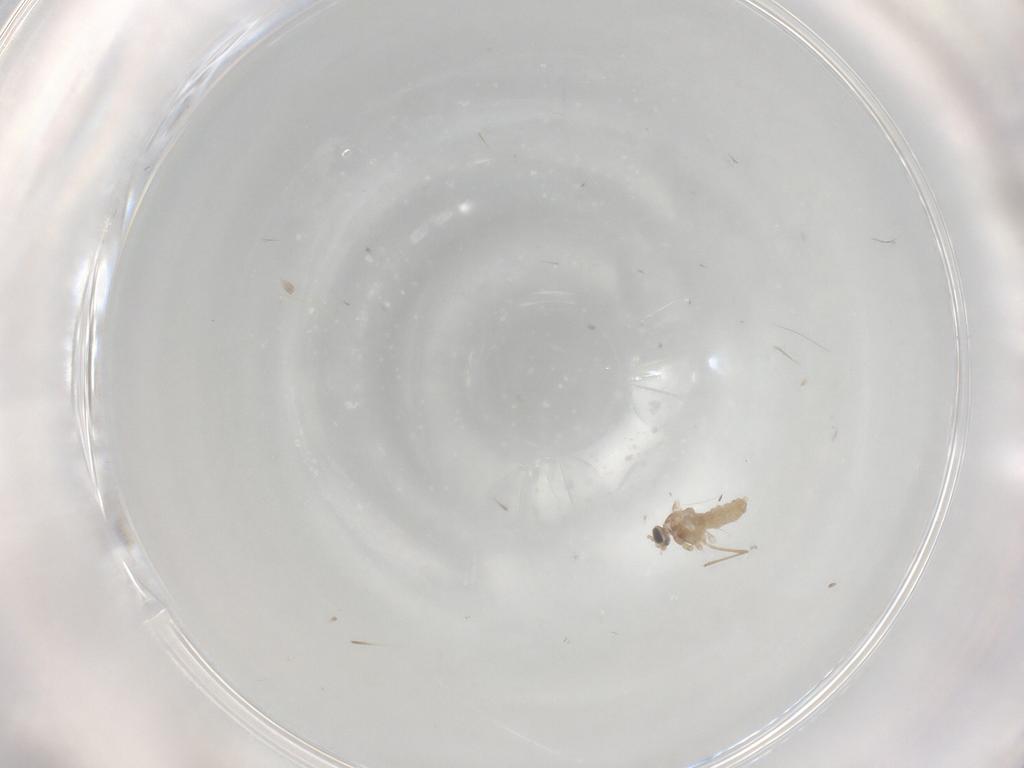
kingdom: Animalia
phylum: Arthropoda
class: Insecta
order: Diptera
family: Cecidomyiidae
